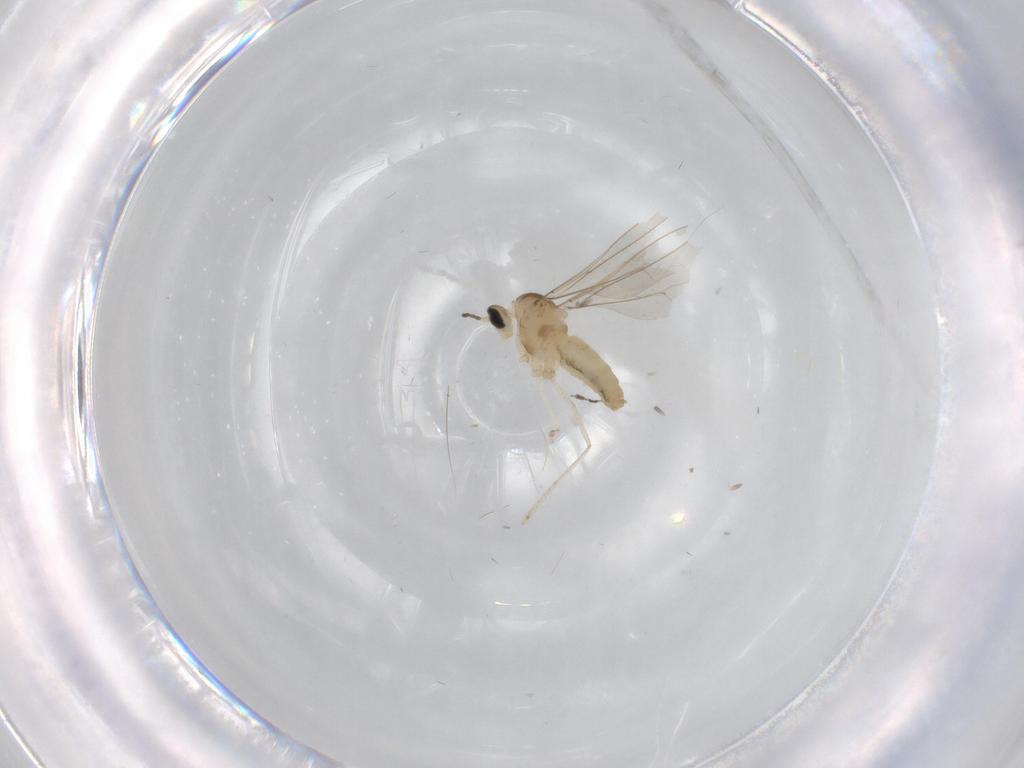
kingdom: Animalia
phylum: Arthropoda
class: Insecta
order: Diptera
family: Cecidomyiidae
